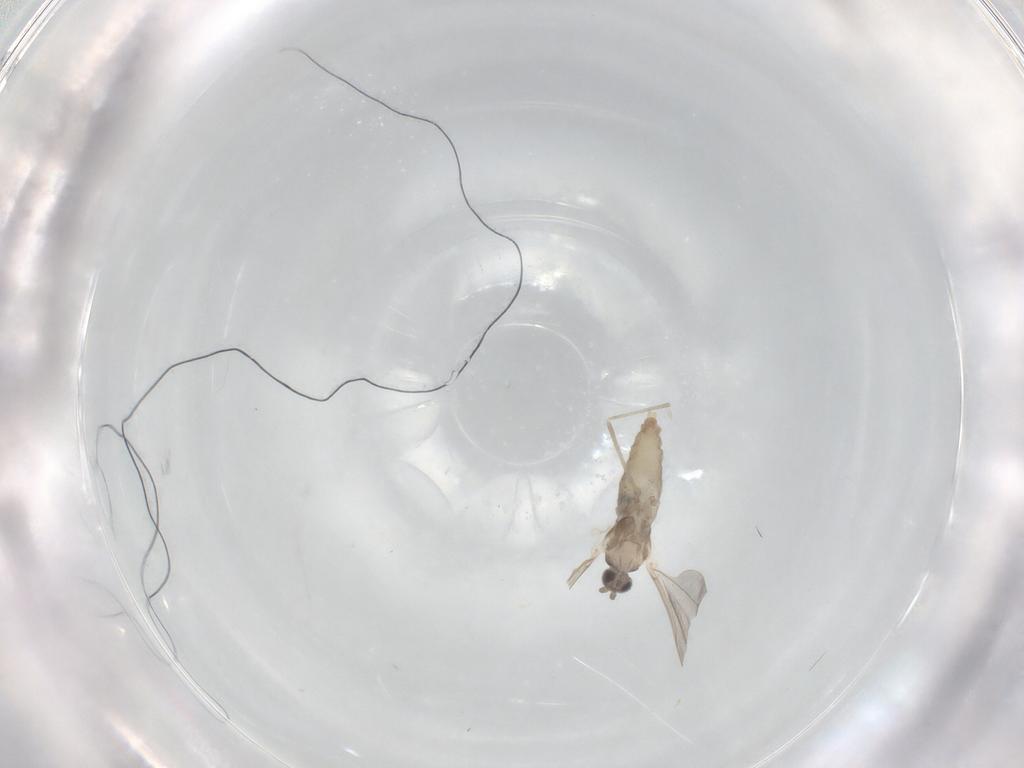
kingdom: Animalia
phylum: Arthropoda
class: Insecta
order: Diptera
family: Cecidomyiidae
